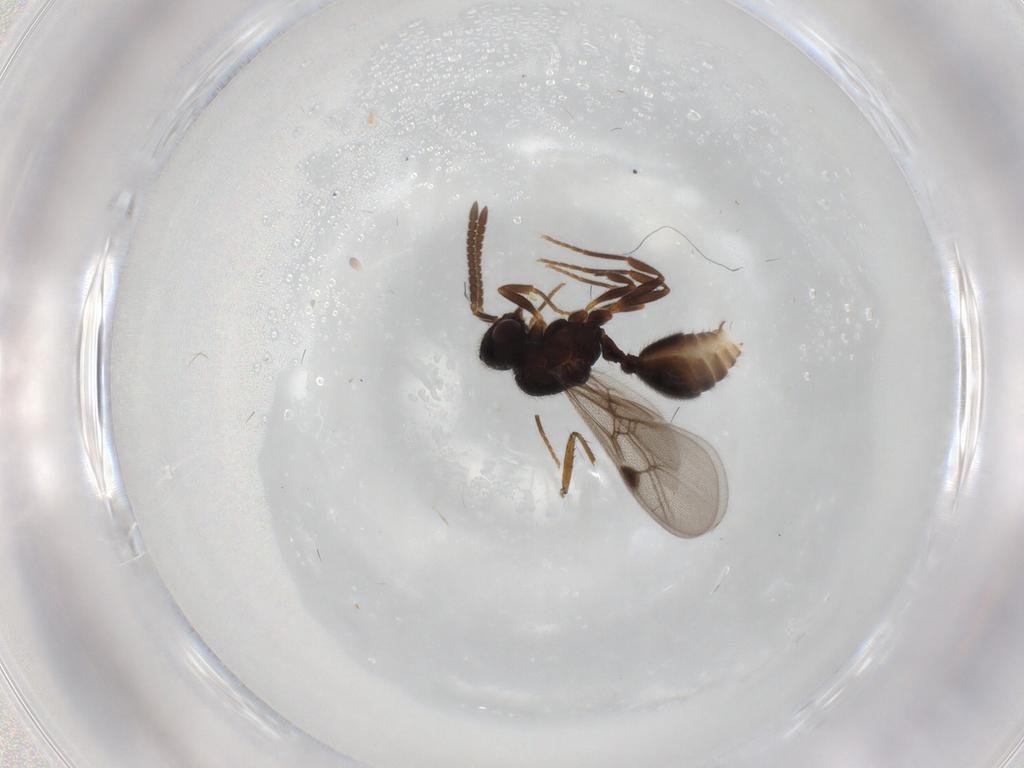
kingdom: Animalia
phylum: Arthropoda
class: Insecta
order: Hymenoptera
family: Formicidae
